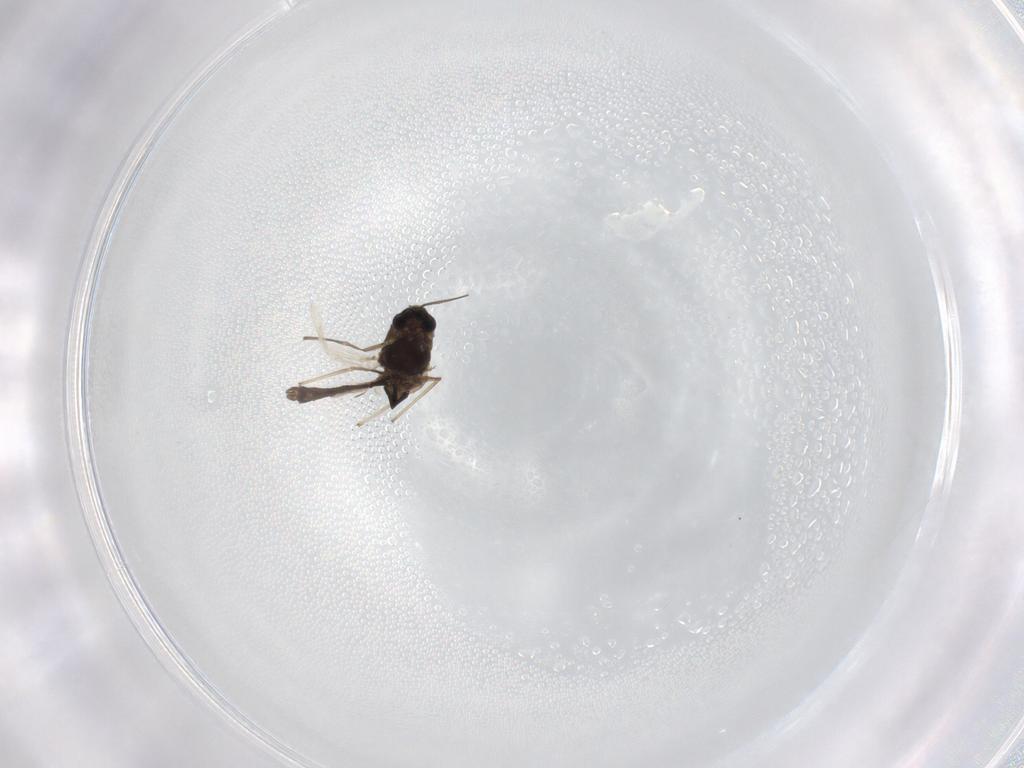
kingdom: Animalia
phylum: Arthropoda
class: Insecta
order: Diptera
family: Chironomidae
